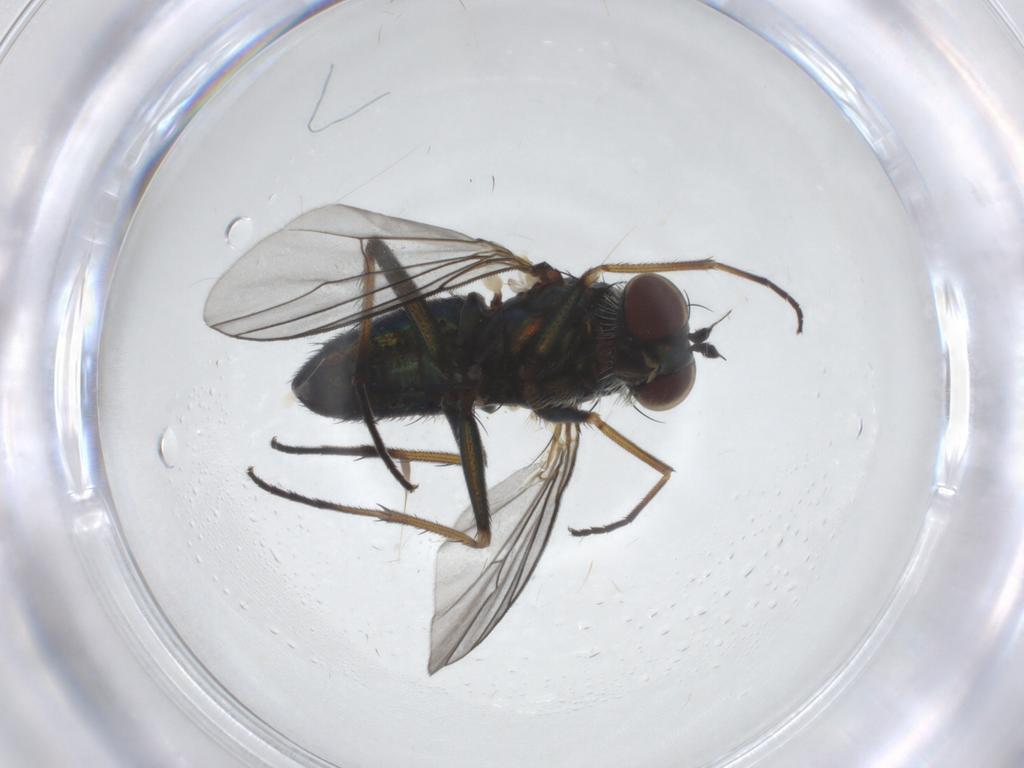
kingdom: Animalia
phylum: Arthropoda
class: Insecta
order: Diptera
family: Dolichopodidae
